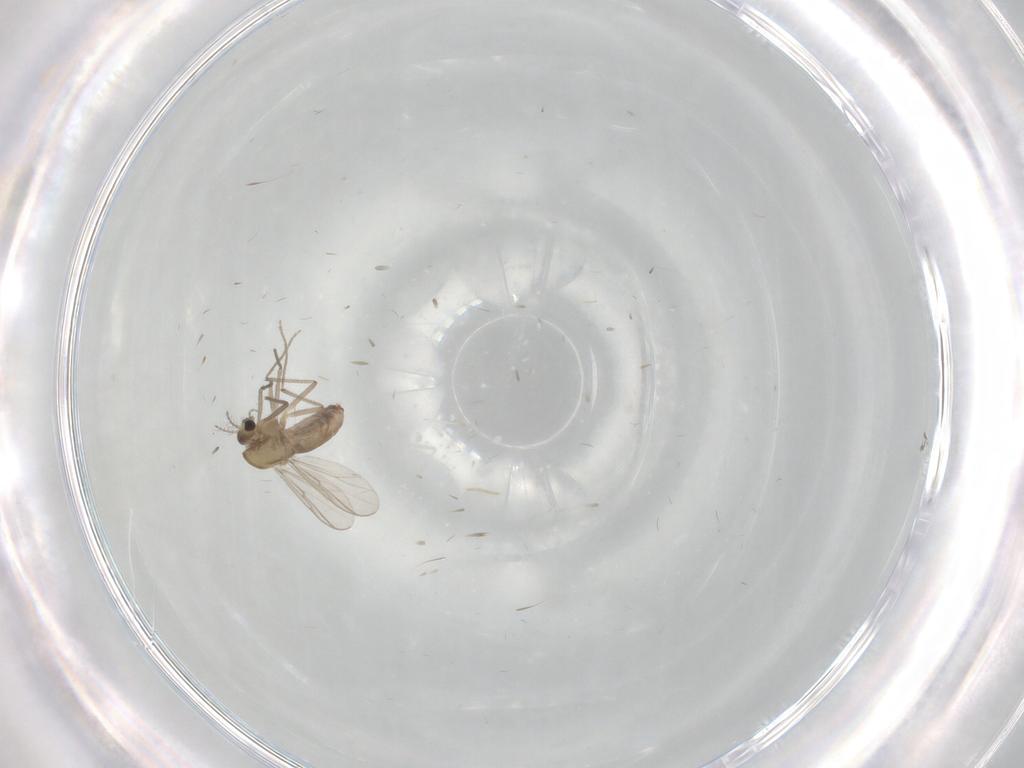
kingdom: Animalia
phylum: Arthropoda
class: Insecta
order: Diptera
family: Chironomidae
